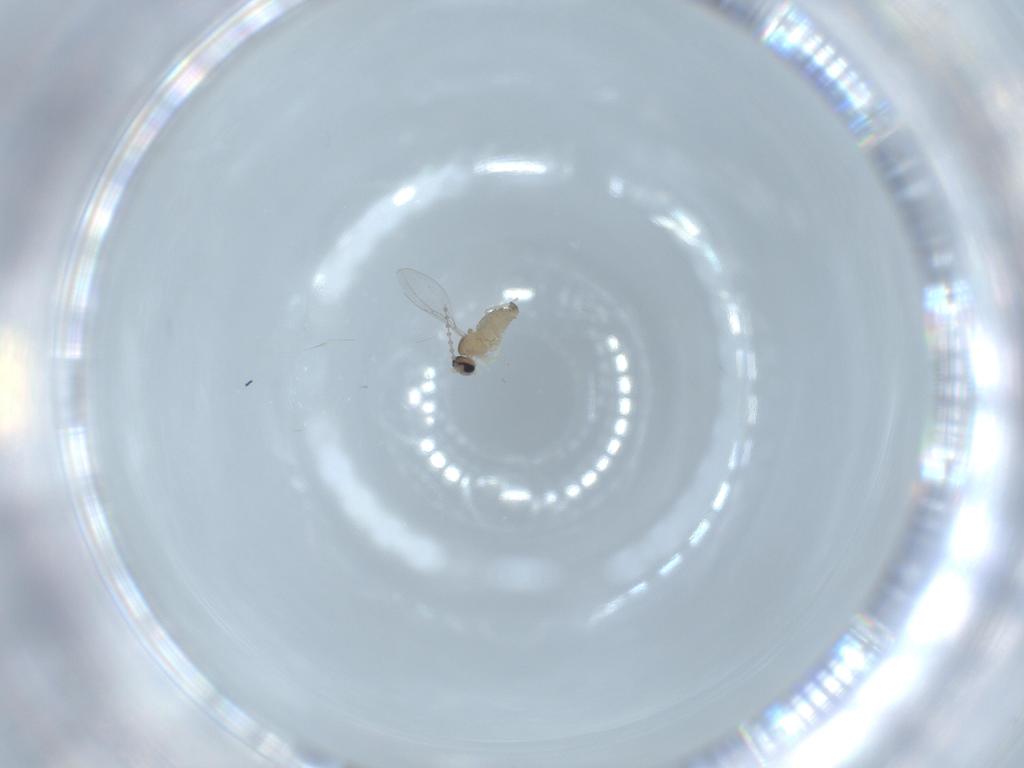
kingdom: Animalia
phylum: Arthropoda
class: Insecta
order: Diptera
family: Cecidomyiidae
